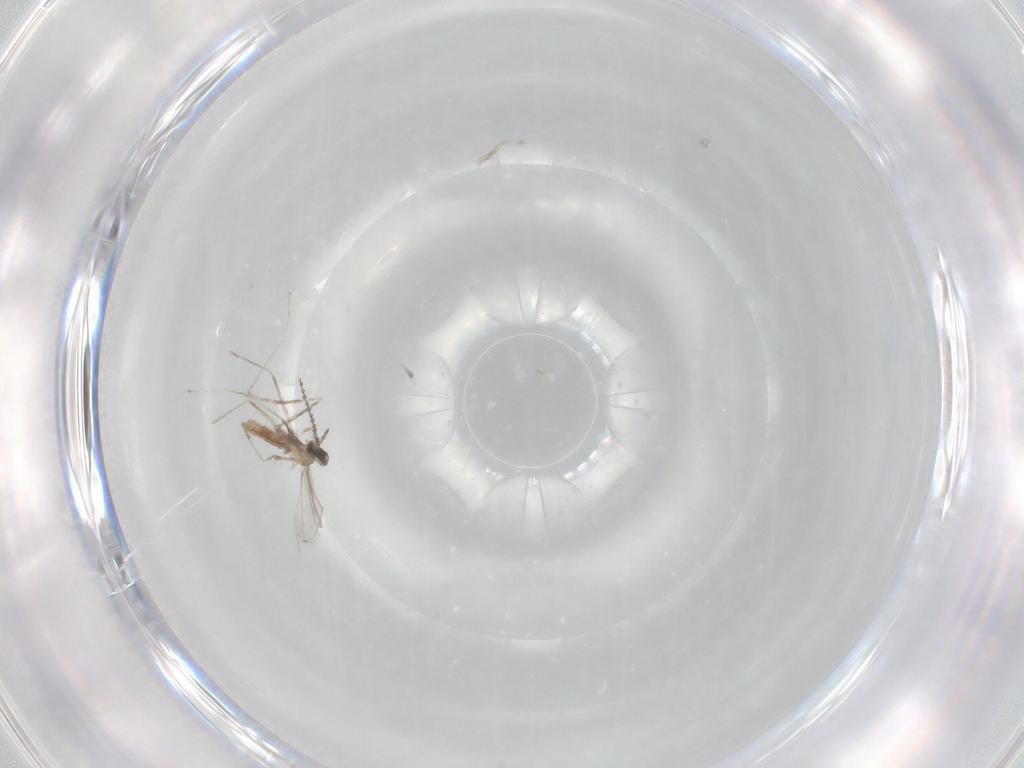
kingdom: Animalia
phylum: Arthropoda
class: Insecta
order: Diptera
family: Cecidomyiidae
